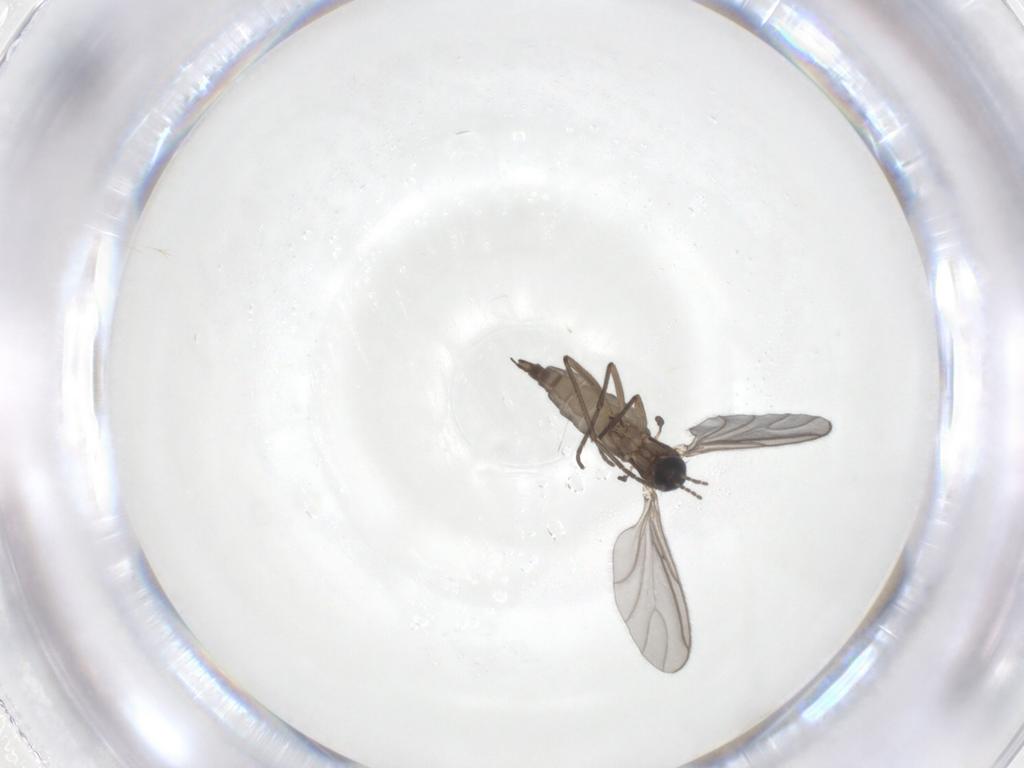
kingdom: Animalia
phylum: Arthropoda
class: Insecta
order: Diptera
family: Sciaridae
